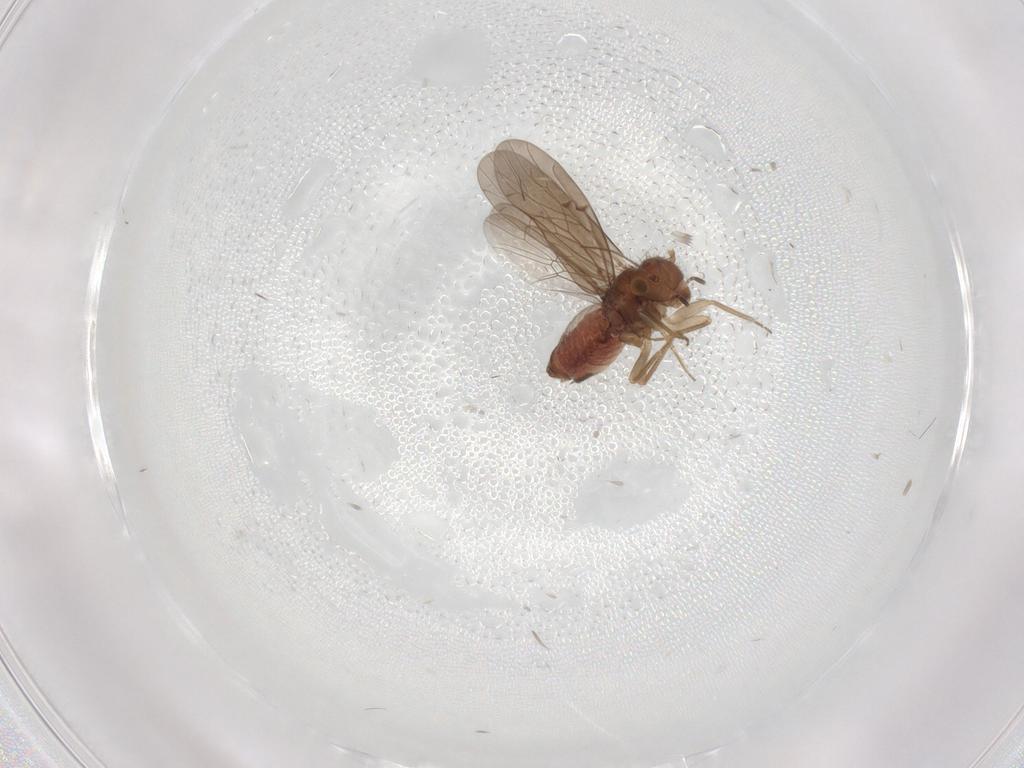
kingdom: Animalia
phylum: Arthropoda
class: Insecta
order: Psocodea
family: Ectopsocidae
